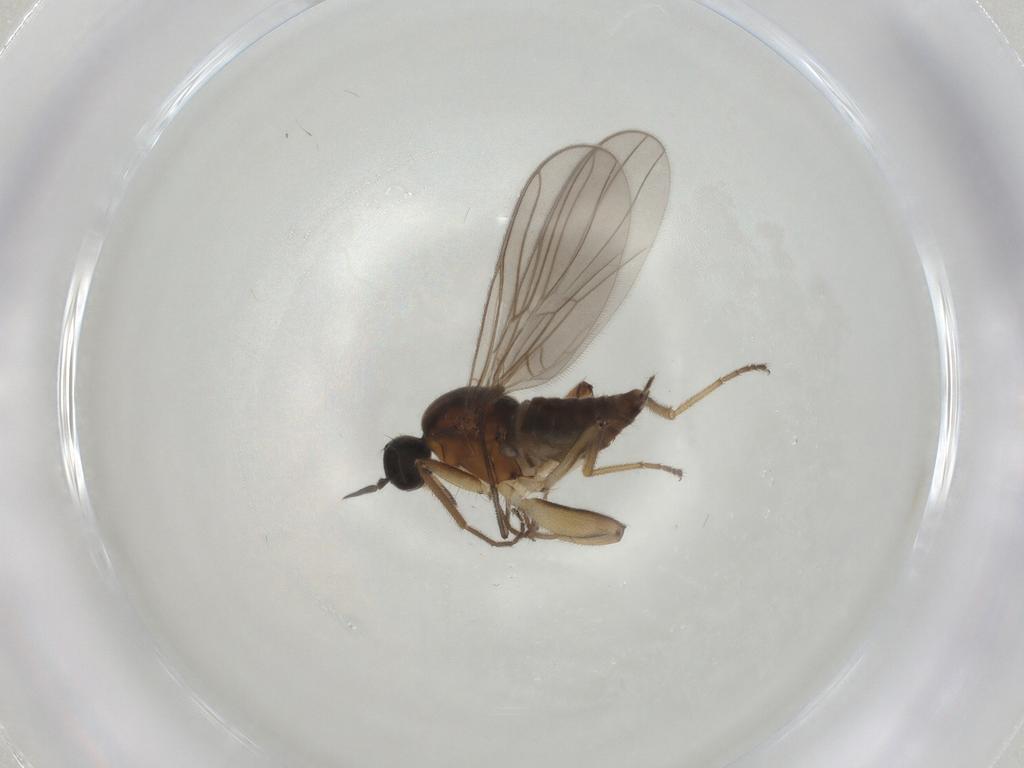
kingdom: Animalia
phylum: Arthropoda
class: Insecta
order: Diptera
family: Hybotidae
